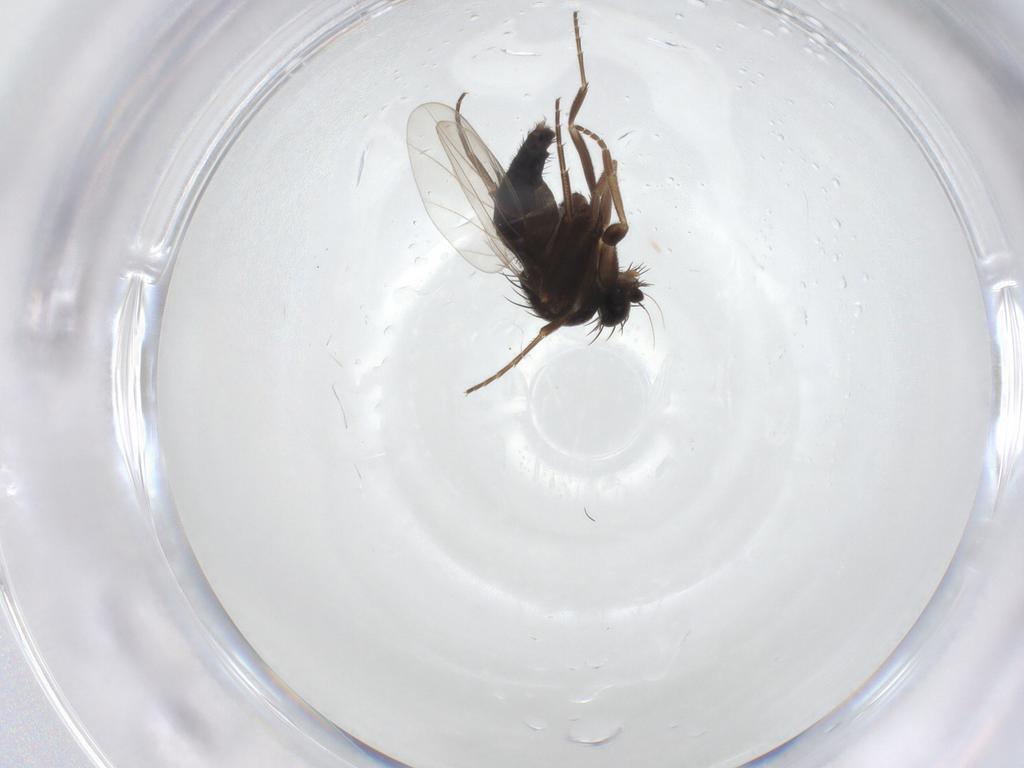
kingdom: Animalia
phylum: Arthropoda
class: Insecta
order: Diptera
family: Phoridae
